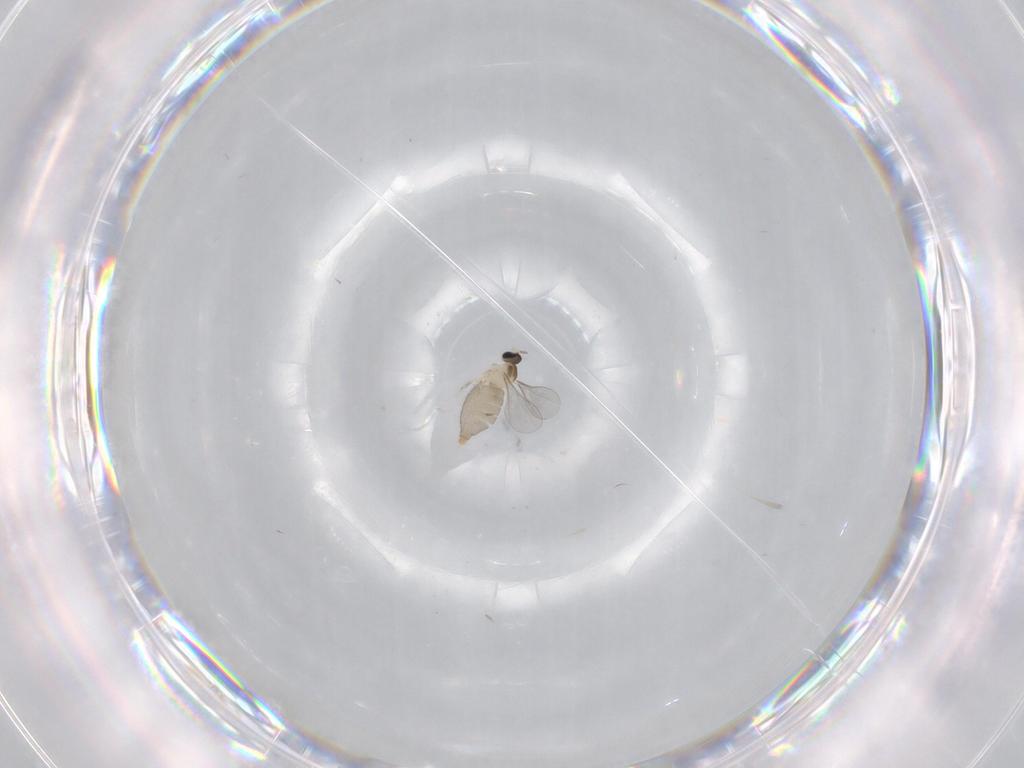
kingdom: Animalia
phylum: Arthropoda
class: Insecta
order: Diptera
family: Cecidomyiidae
